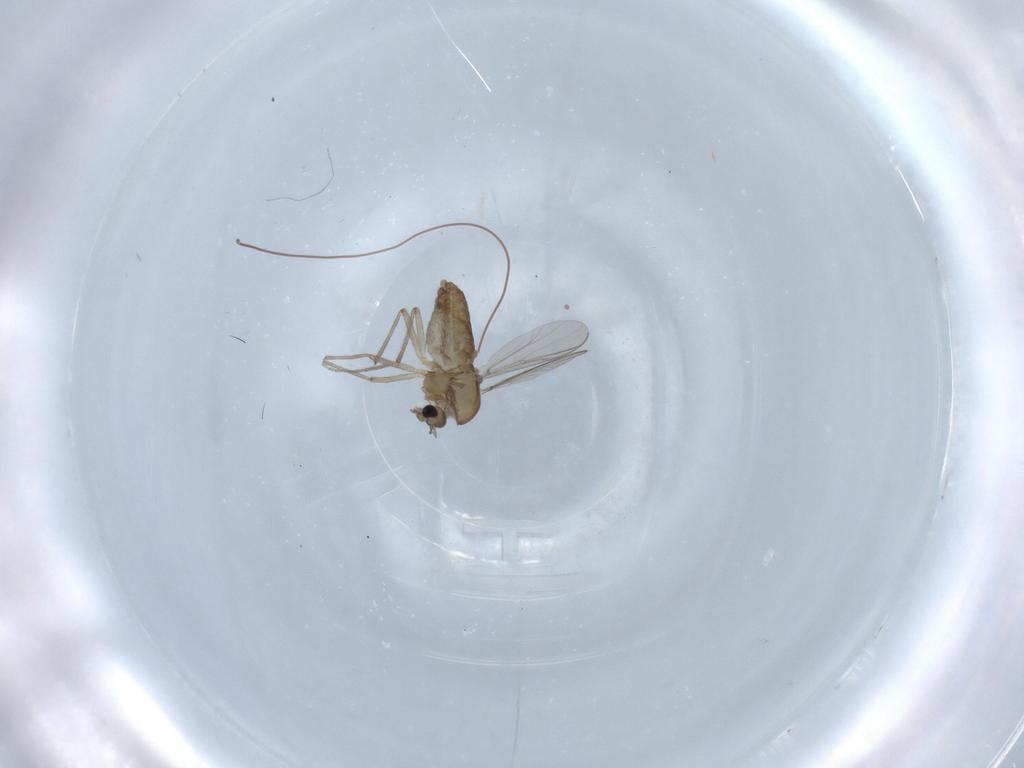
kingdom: Animalia
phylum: Arthropoda
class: Insecta
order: Diptera
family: Chironomidae
